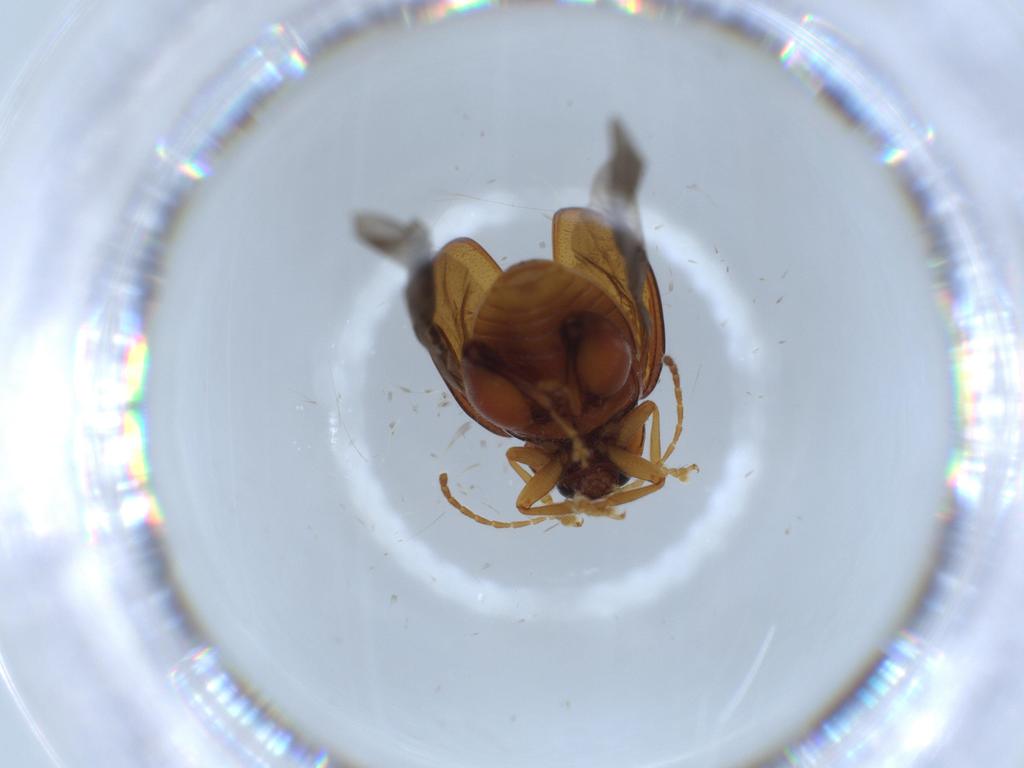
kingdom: Animalia
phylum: Arthropoda
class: Insecta
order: Coleoptera
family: Chrysomelidae
